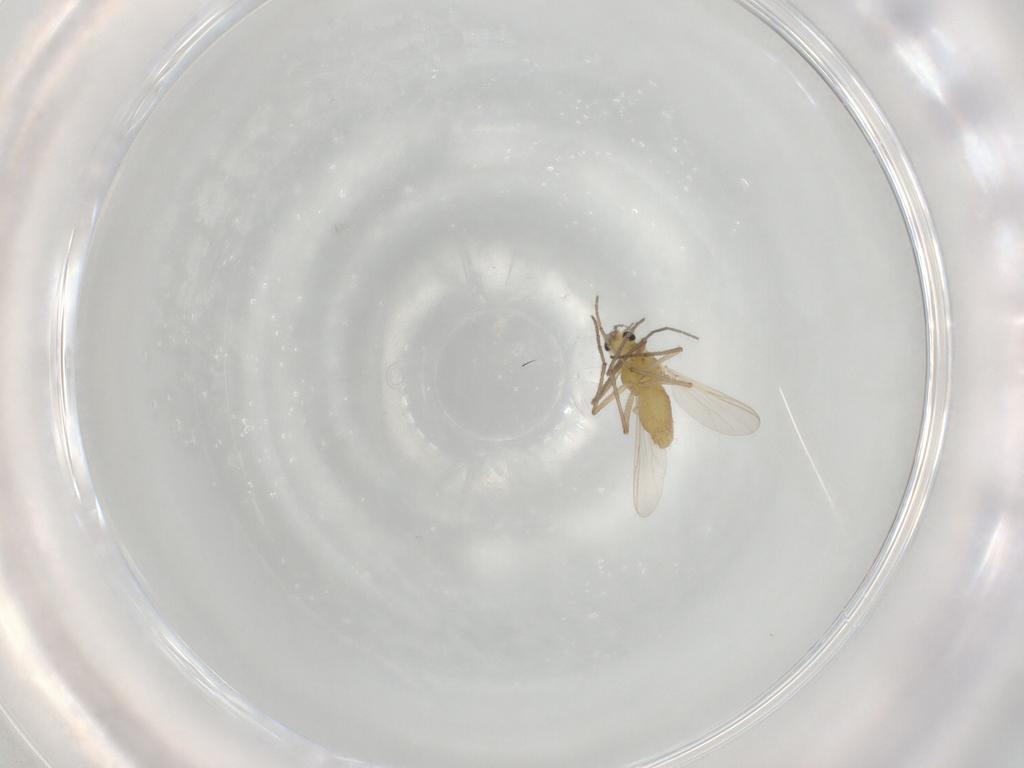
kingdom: Animalia
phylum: Arthropoda
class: Insecta
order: Diptera
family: Chironomidae
